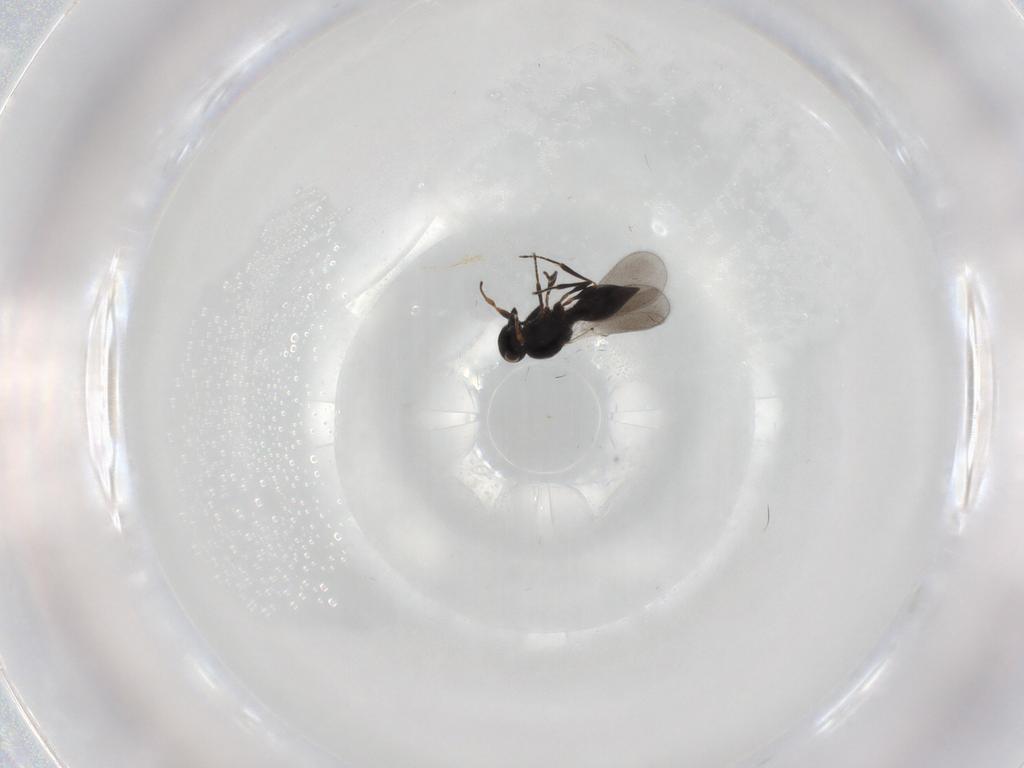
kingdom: Animalia
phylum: Arthropoda
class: Insecta
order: Hymenoptera
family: Platygastridae
